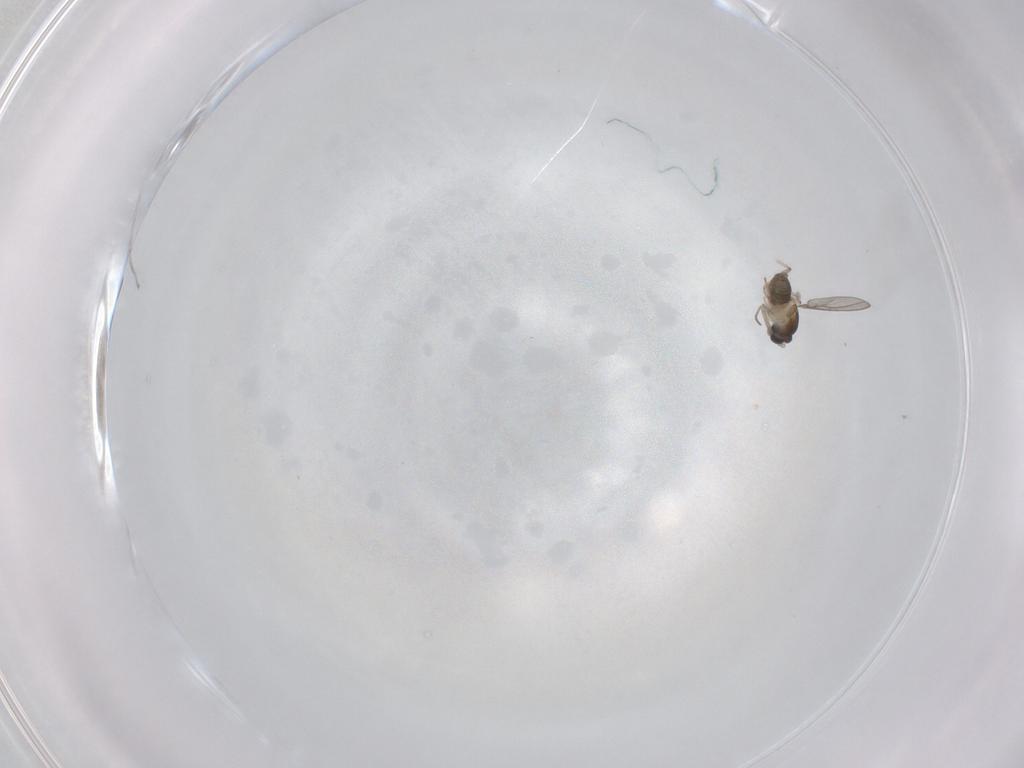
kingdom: Animalia
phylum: Arthropoda
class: Insecta
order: Diptera
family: Cecidomyiidae
